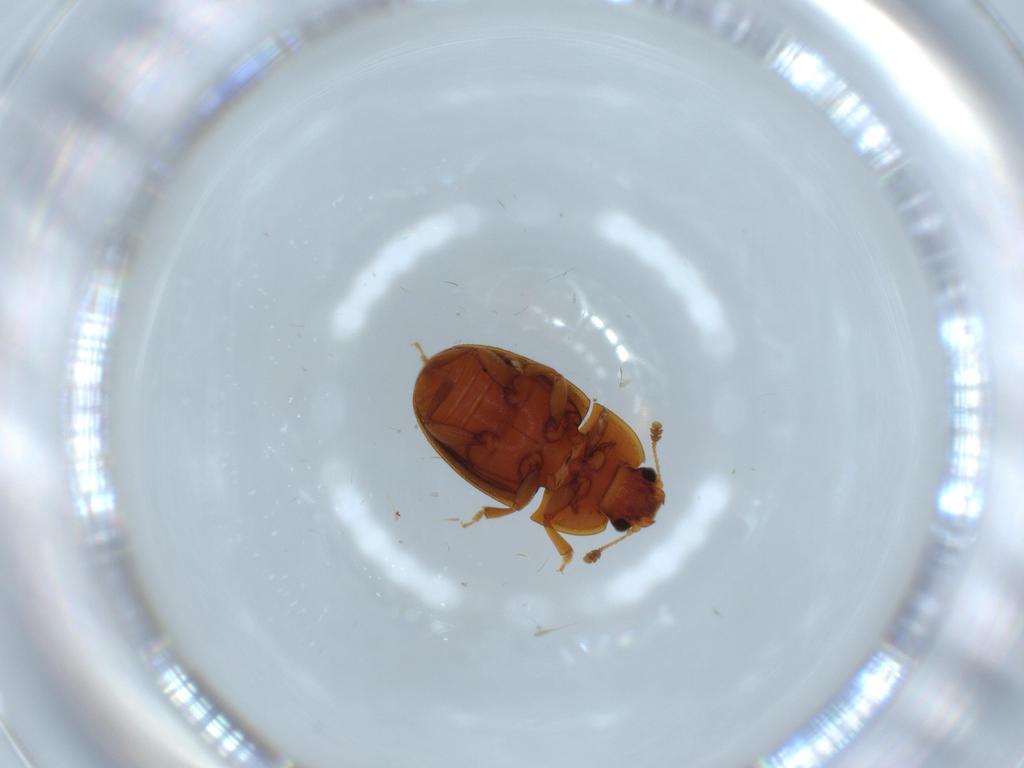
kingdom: Animalia
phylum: Arthropoda
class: Insecta
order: Coleoptera
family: Nitidulidae
